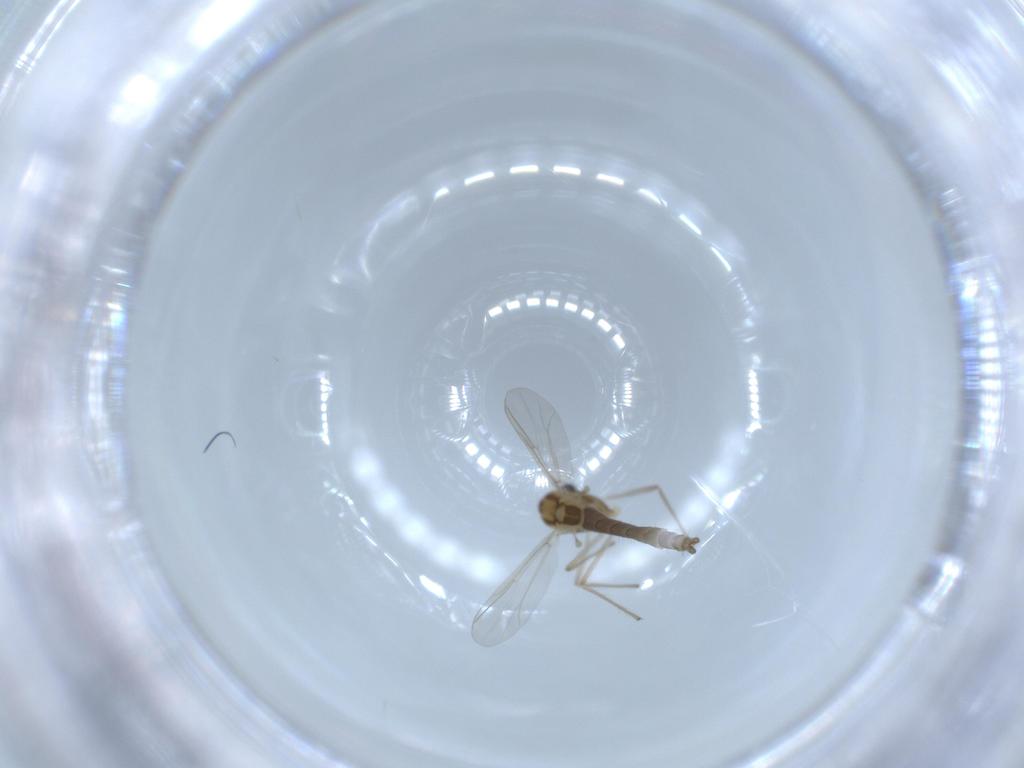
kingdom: Animalia
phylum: Arthropoda
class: Insecta
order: Diptera
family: Chironomidae
